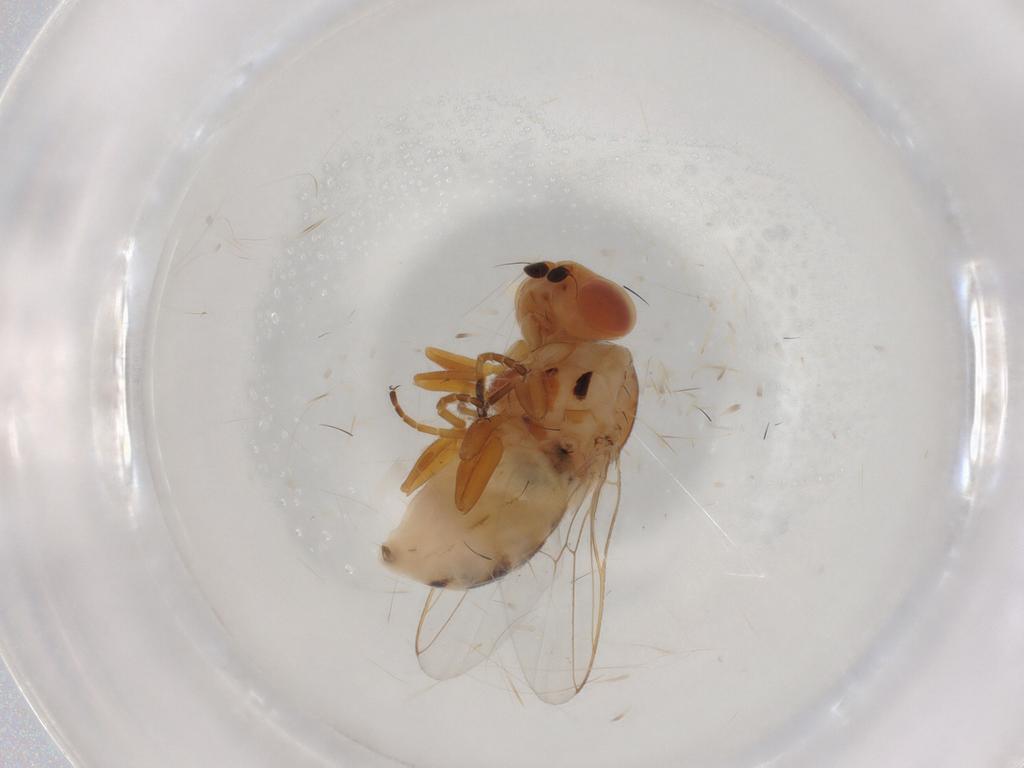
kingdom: Animalia
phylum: Arthropoda
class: Insecta
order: Diptera
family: Chloropidae
